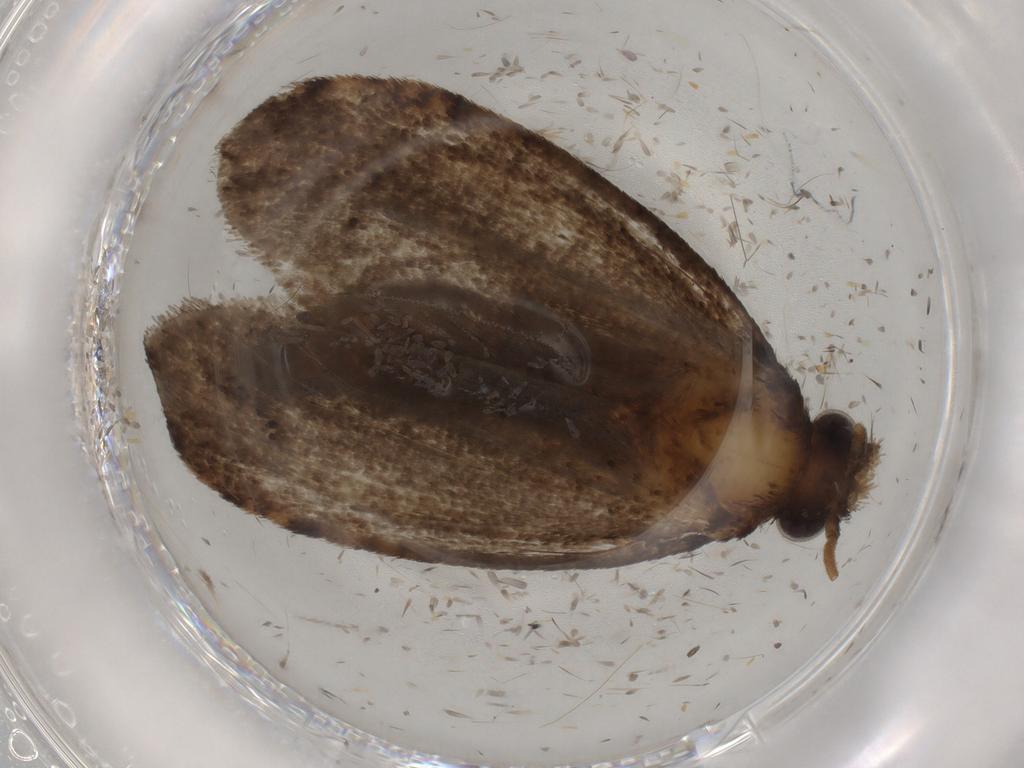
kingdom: Animalia
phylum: Arthropoda
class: Insecta
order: Lepidoptera
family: Tineidae
